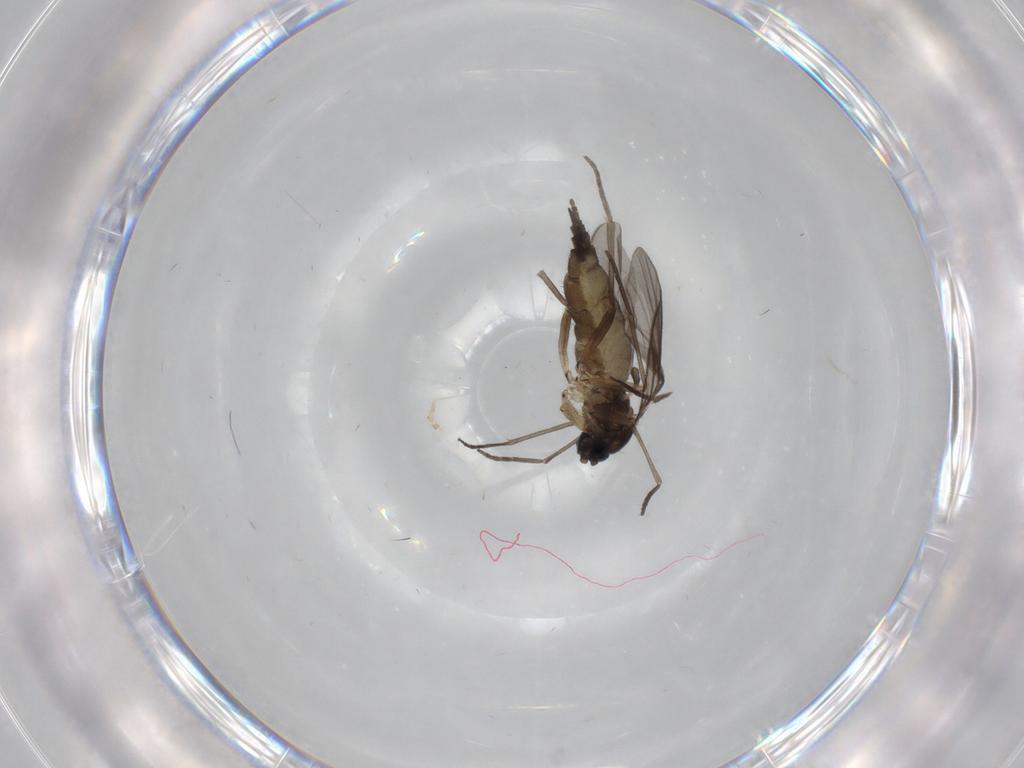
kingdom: Animalia
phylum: Arthropoda
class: Insecta
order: Diptera
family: Sciaridae
